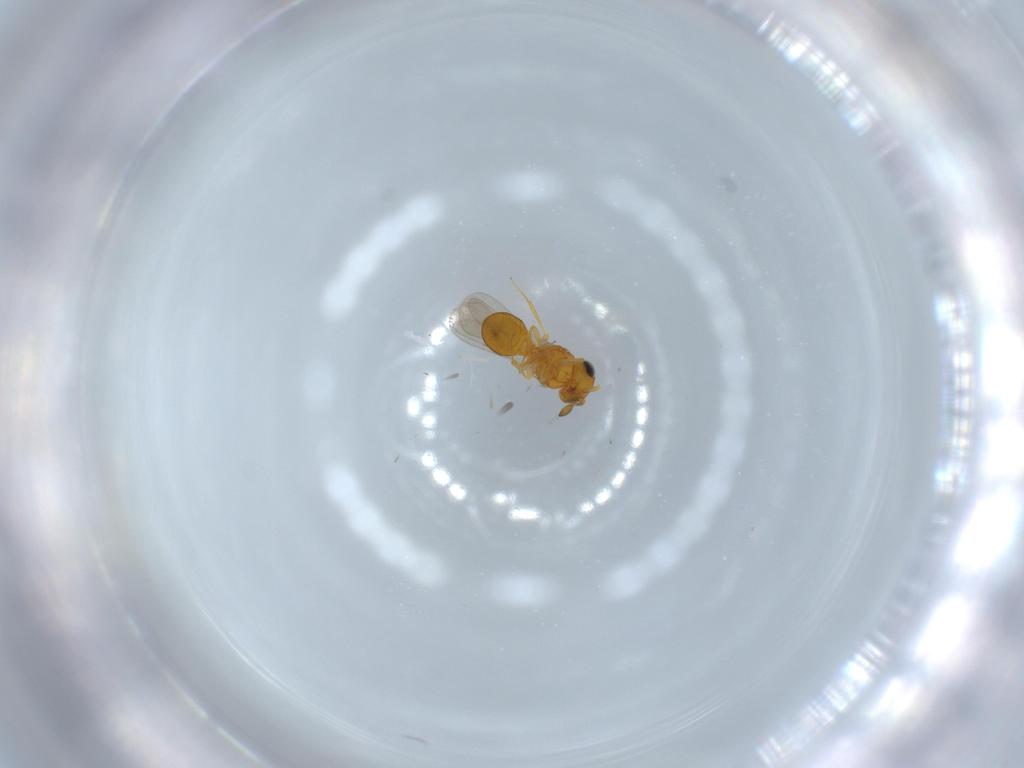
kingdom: Animalia
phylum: Arthropoda
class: Insecta
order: Hymenoptera
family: Scelionidae
